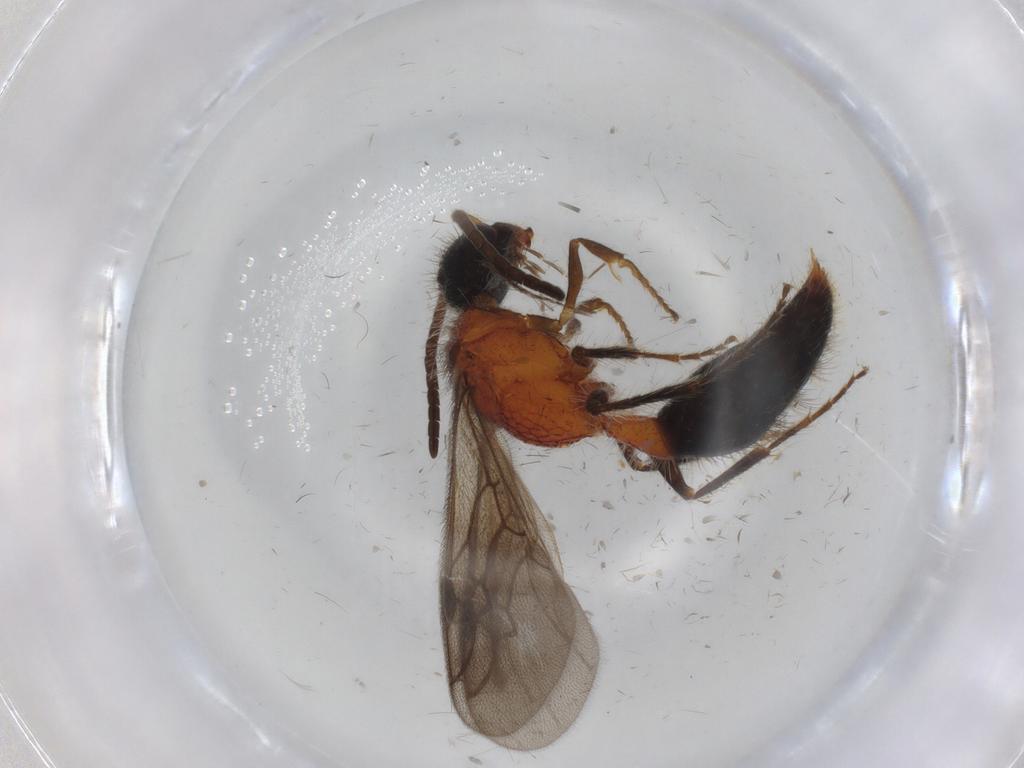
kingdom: Animalia
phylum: Arthropoda
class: Insecta
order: Hymenoptera
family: Mutillidae
